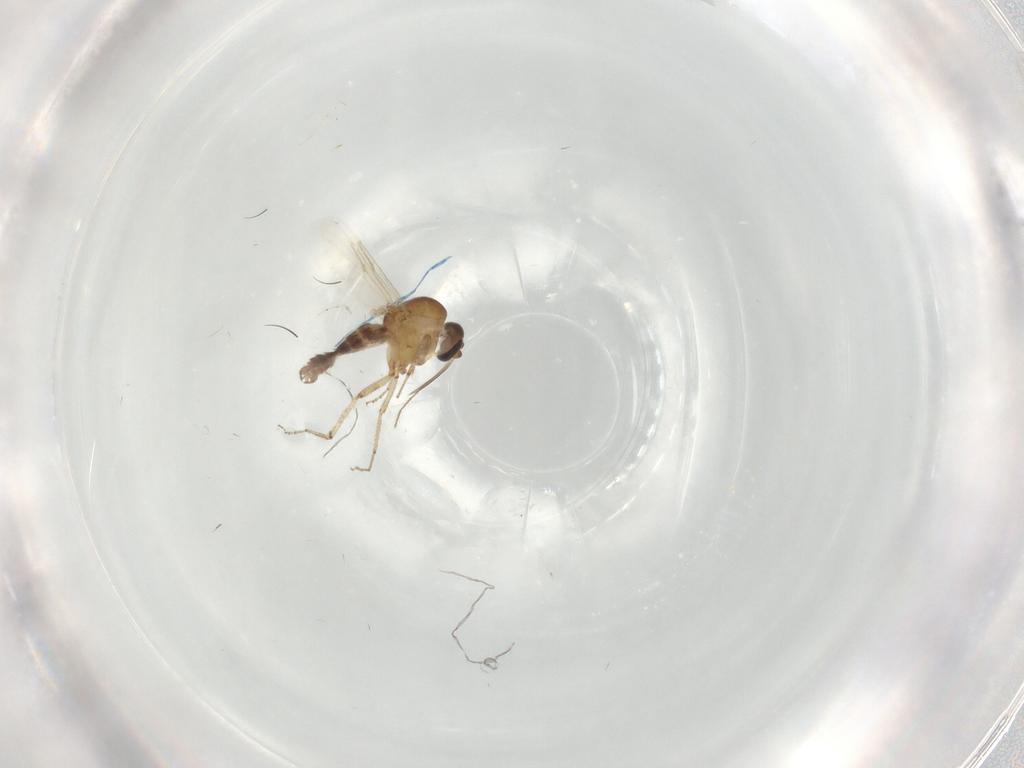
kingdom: Animalia
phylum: Arthropoda
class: Insecta
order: Diptera
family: Ceratopogonidae
